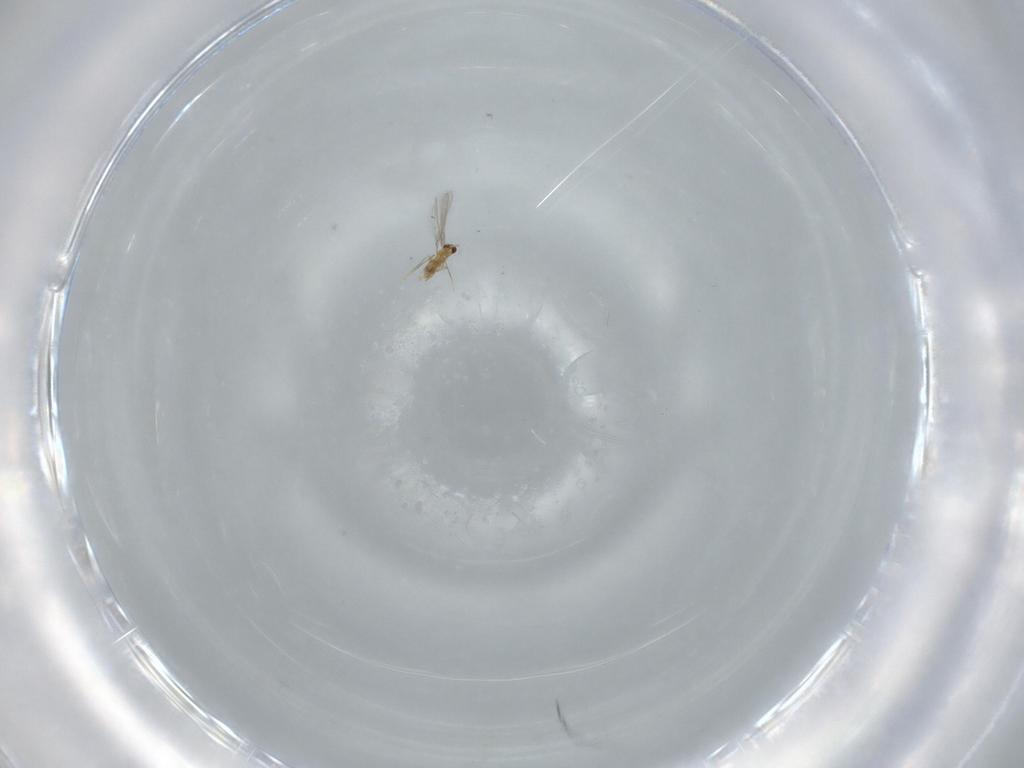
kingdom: Animalia
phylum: Arthropoda
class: Insecta
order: Hymenoptera
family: Mymaridae
